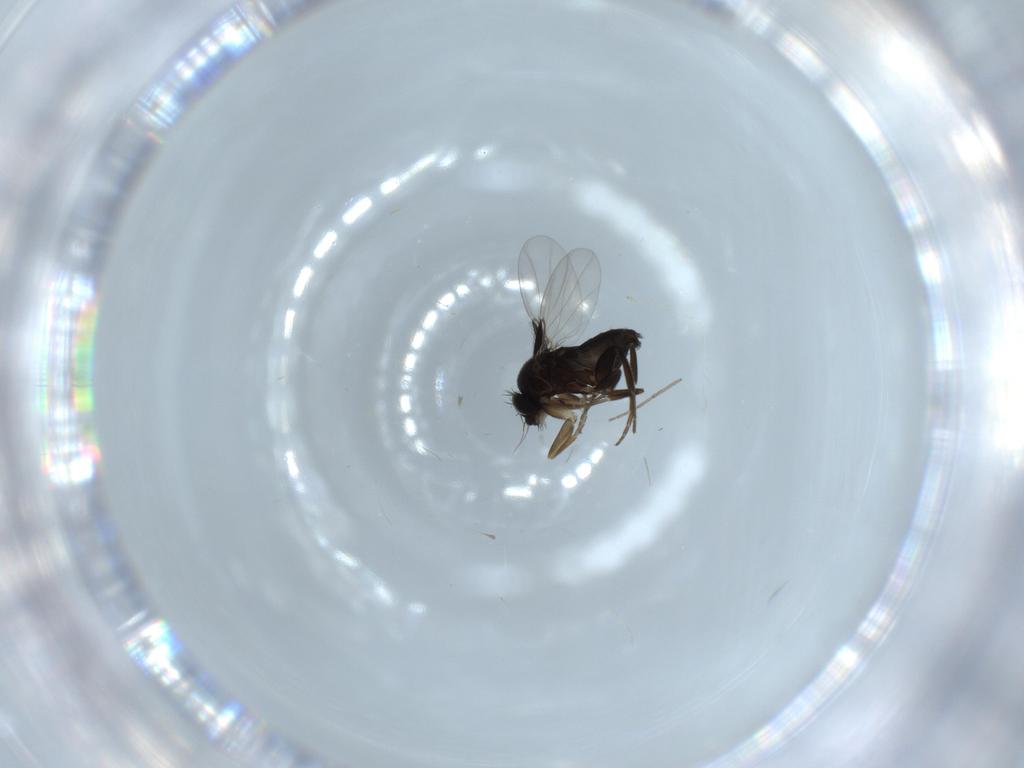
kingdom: Animalia
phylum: Arthropoda
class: Insecta
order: Diptera
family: Phoridae
